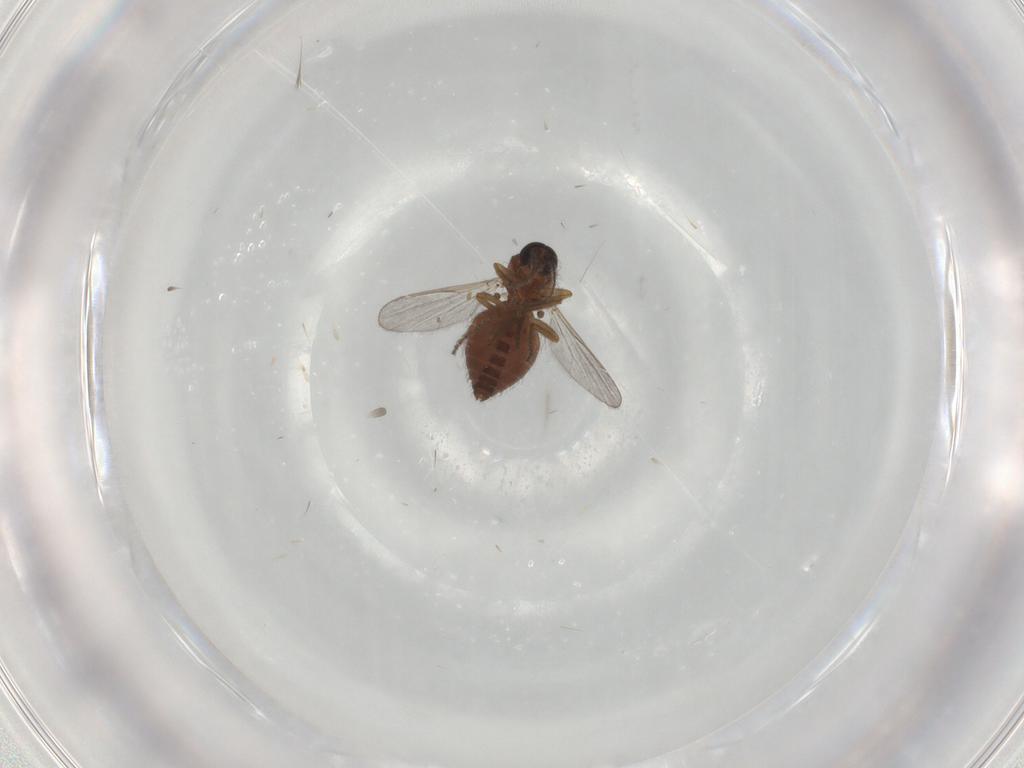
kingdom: Animalia
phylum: Arthropoda
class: Insecta
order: Diptera
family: Ceratopogonidae
